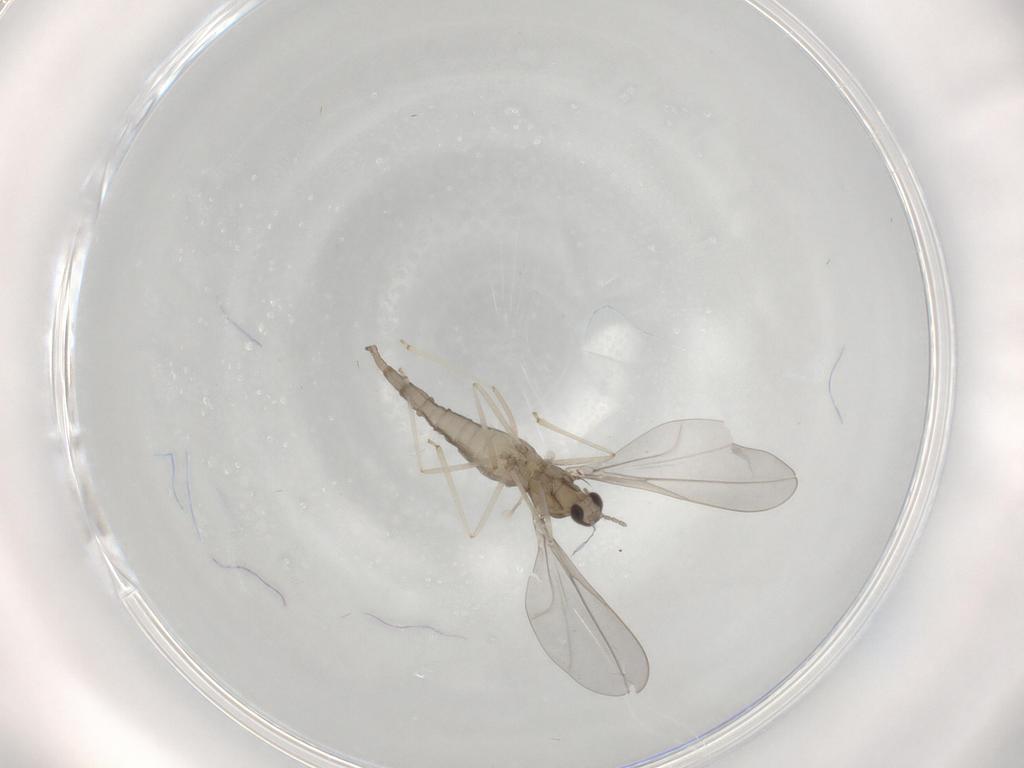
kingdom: Animalia
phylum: Arthropoda
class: Insecta
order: Diptera
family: Cecidomyiidae
